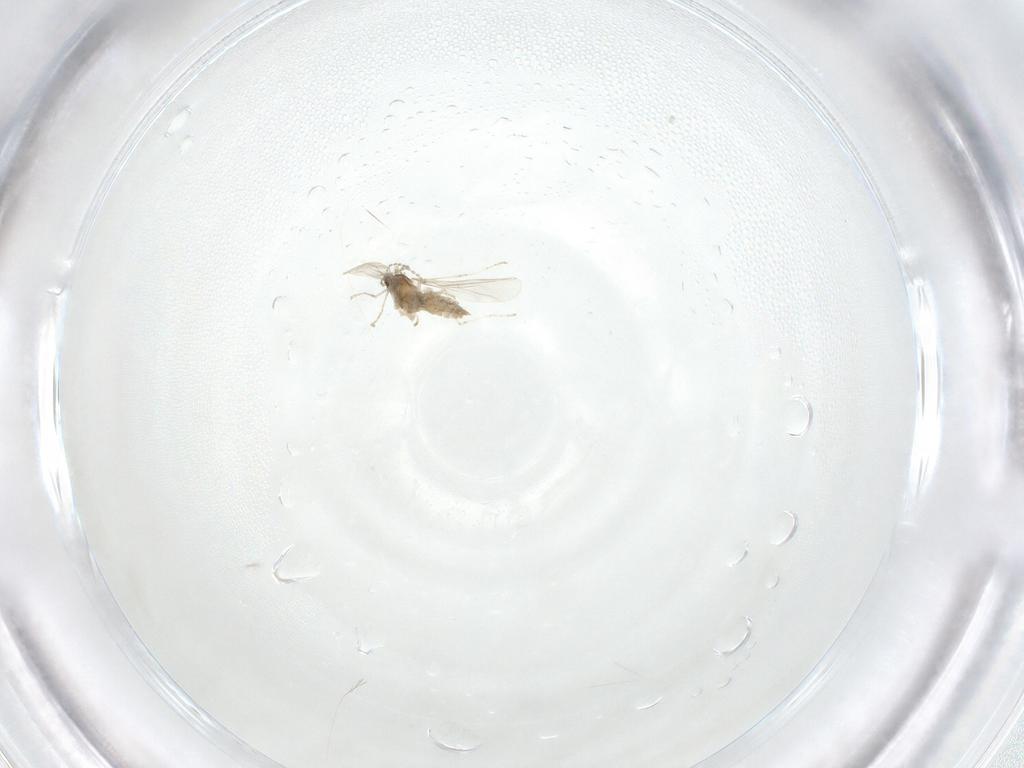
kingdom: Animalia
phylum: Arthropoda
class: Insecta
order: Diptera
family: Cecidomyiidae
